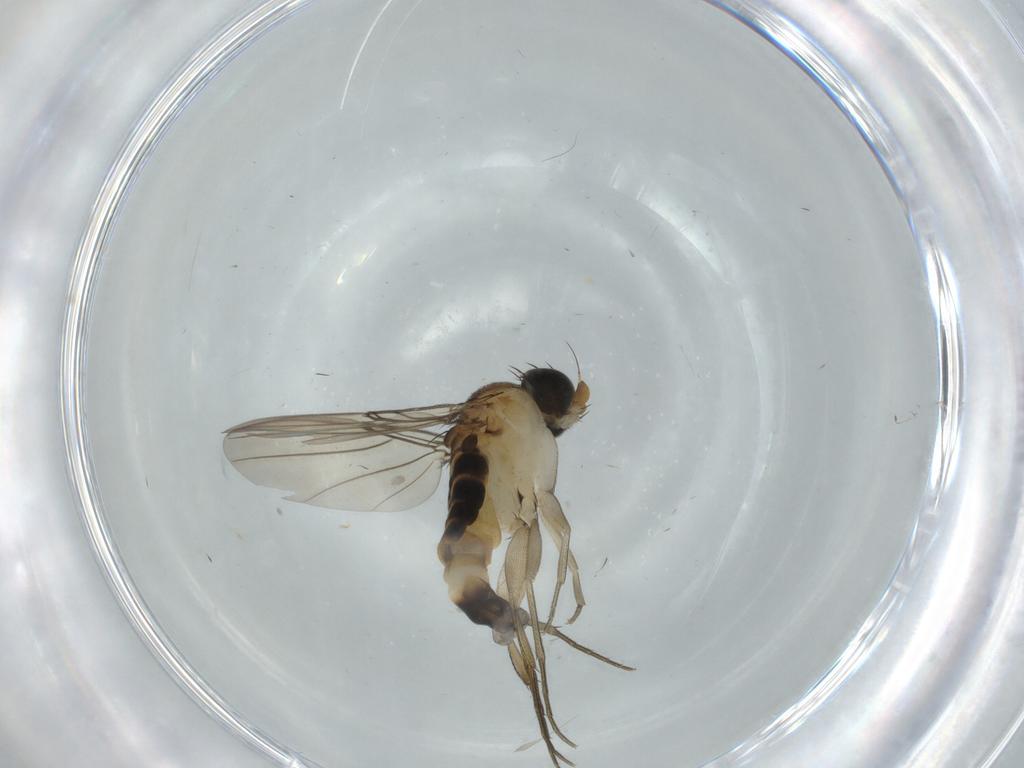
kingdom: Animalia
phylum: Arthropoda
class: Insecta
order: Diptera
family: Phoridae
